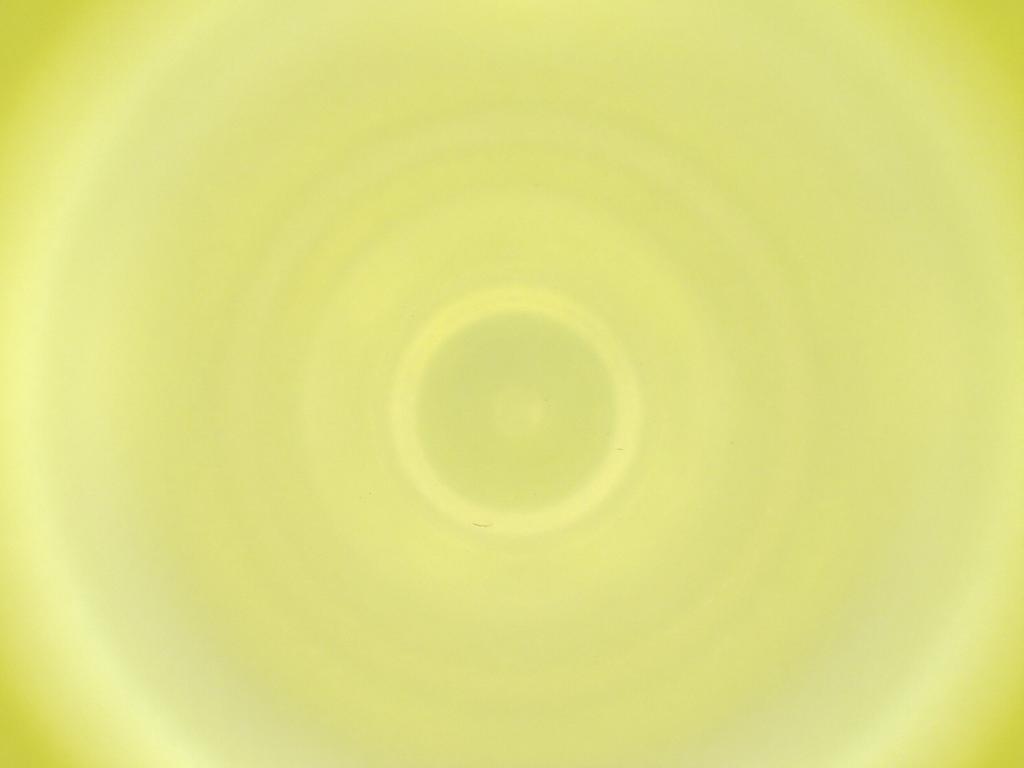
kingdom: Animalia
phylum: Arthropoda
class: Insecta
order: Diptera
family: Cecidomyiidae
